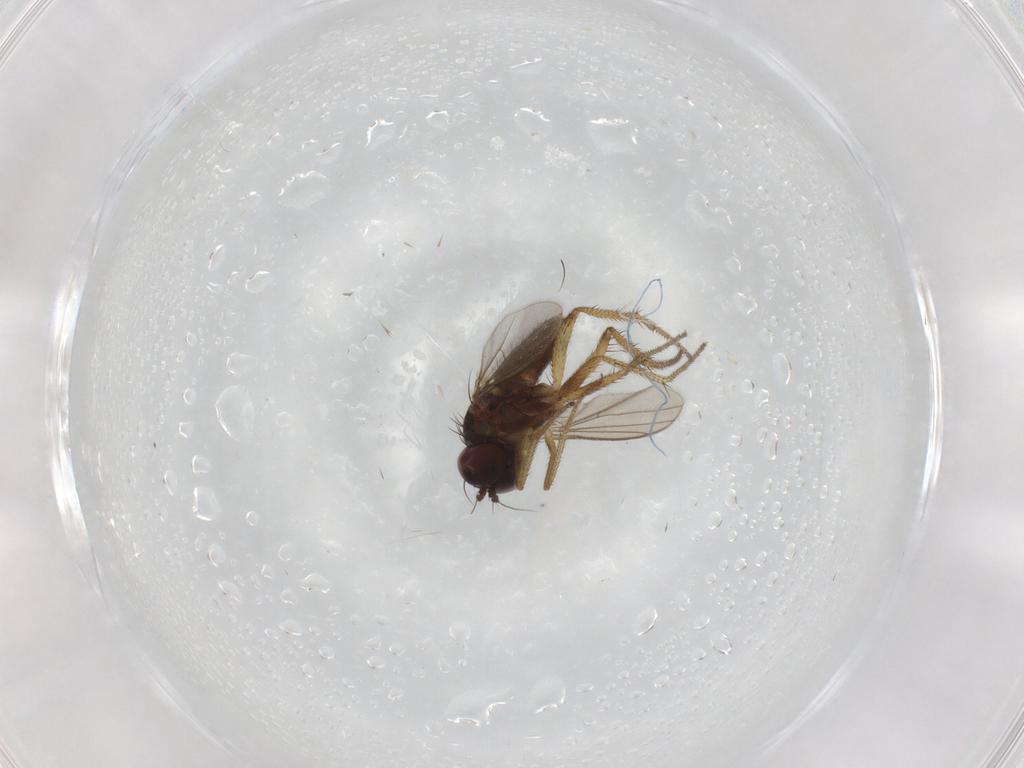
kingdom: Animalia
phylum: Arthropoda
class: Insecta
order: Diptera
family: Dolichopodidae
